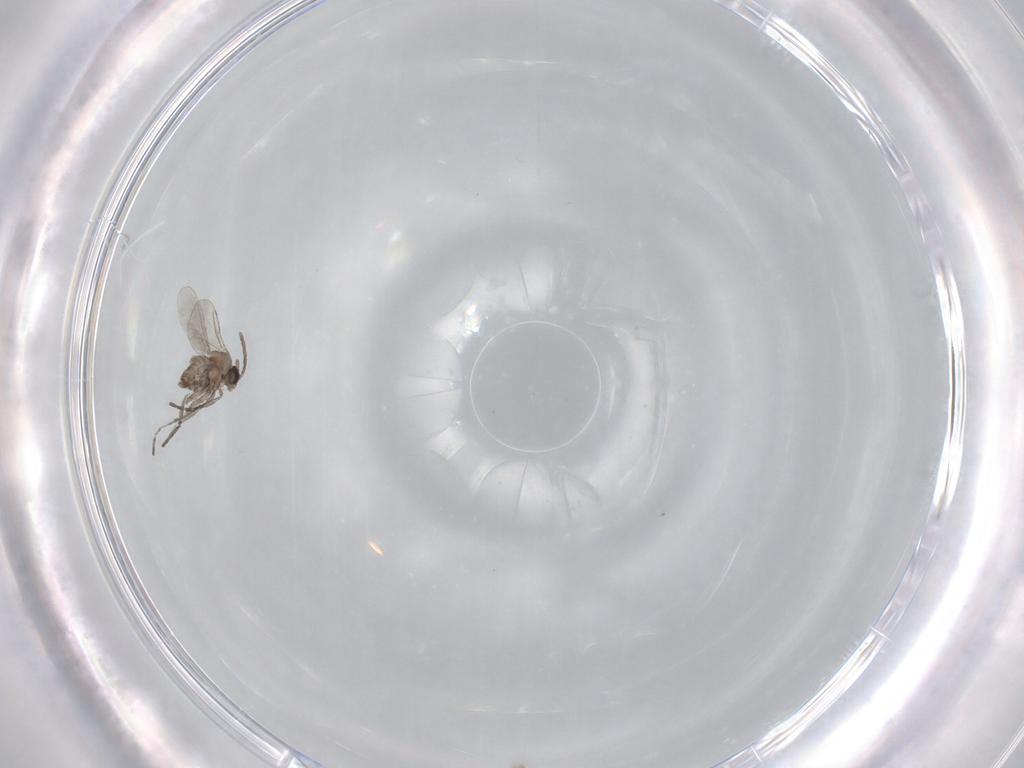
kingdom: Animalia
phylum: Arthropoda
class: Insecta
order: Diptera
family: Cecidomyiidae
